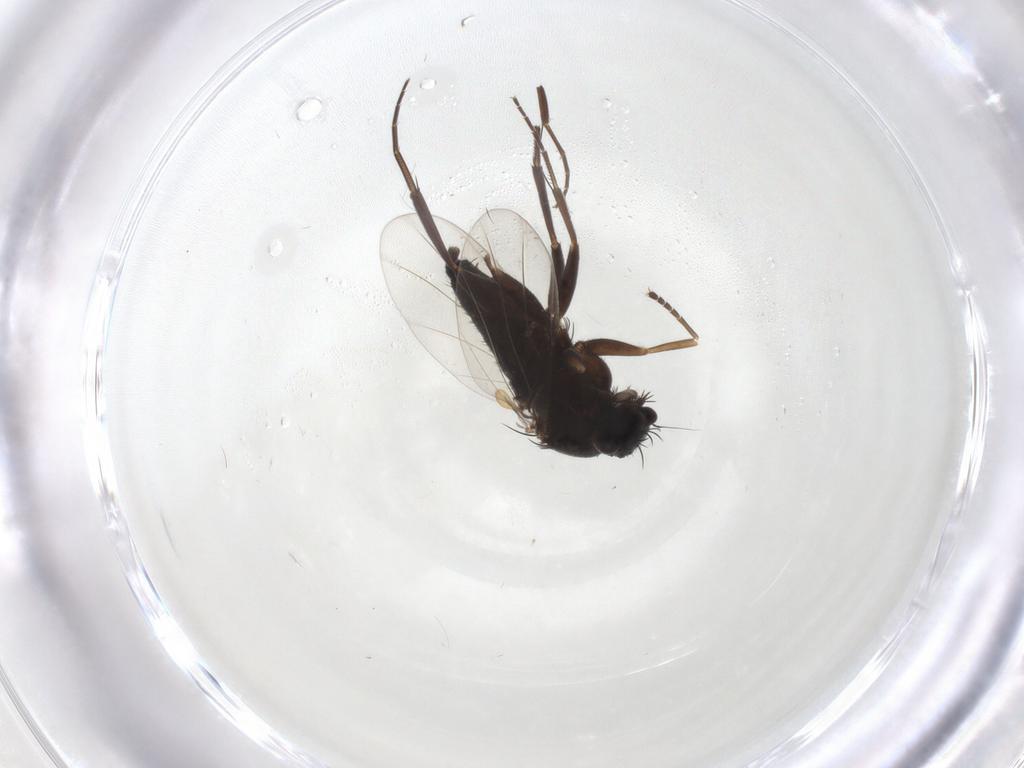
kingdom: Animalia
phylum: Arthropoda
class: Insecta
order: Diptera
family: Phoridae
